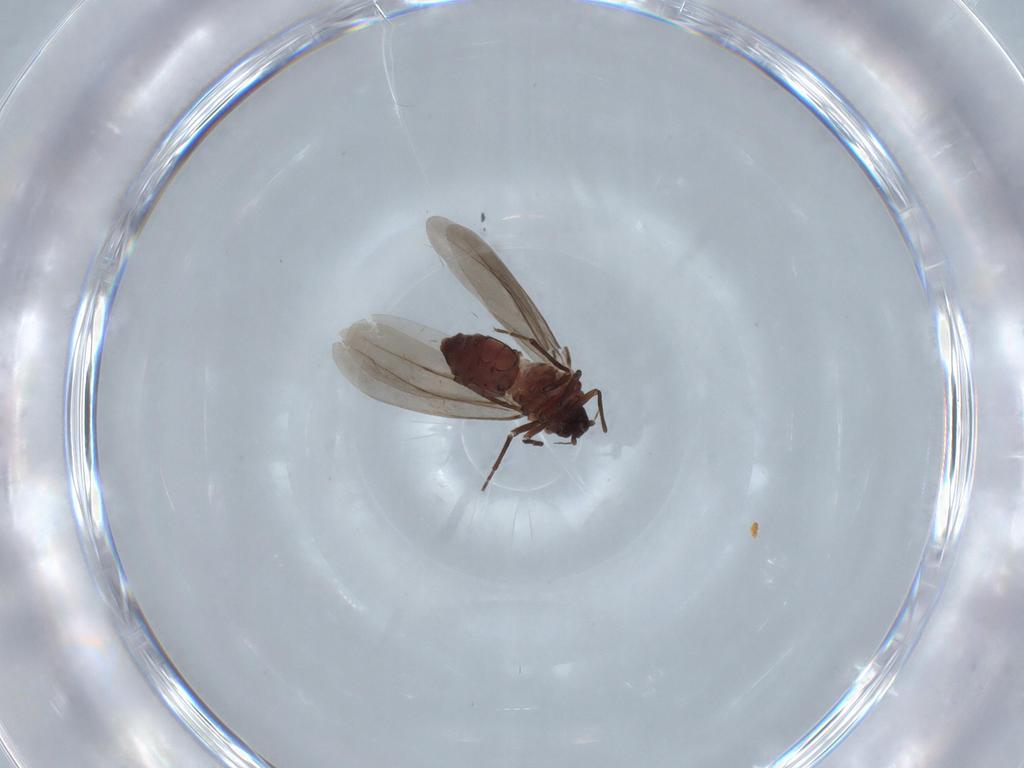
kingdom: Animalia
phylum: Arthropoda
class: Insecta
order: Hemiptera
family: Aleyrodidae
